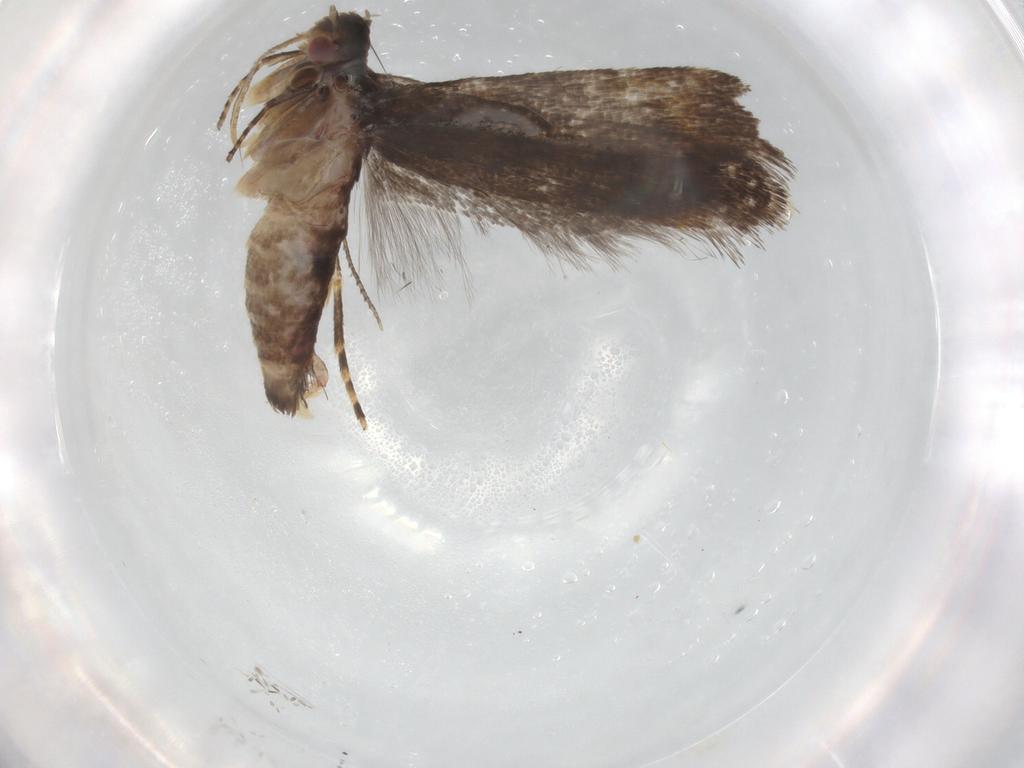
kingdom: Animalia
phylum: Arthropoda
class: Insecta
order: Lepidoptera
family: Gelechiidae
